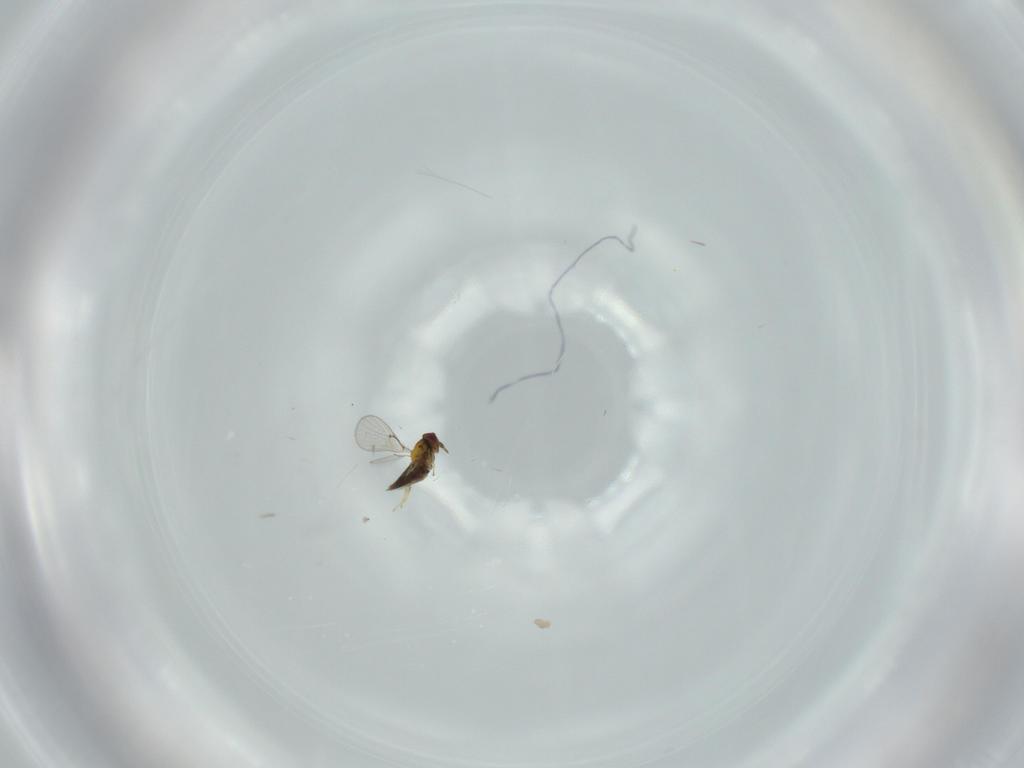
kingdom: Animalia
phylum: Arthropoda
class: Insecta
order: Hymenoptera
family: Trichogrammatidae
